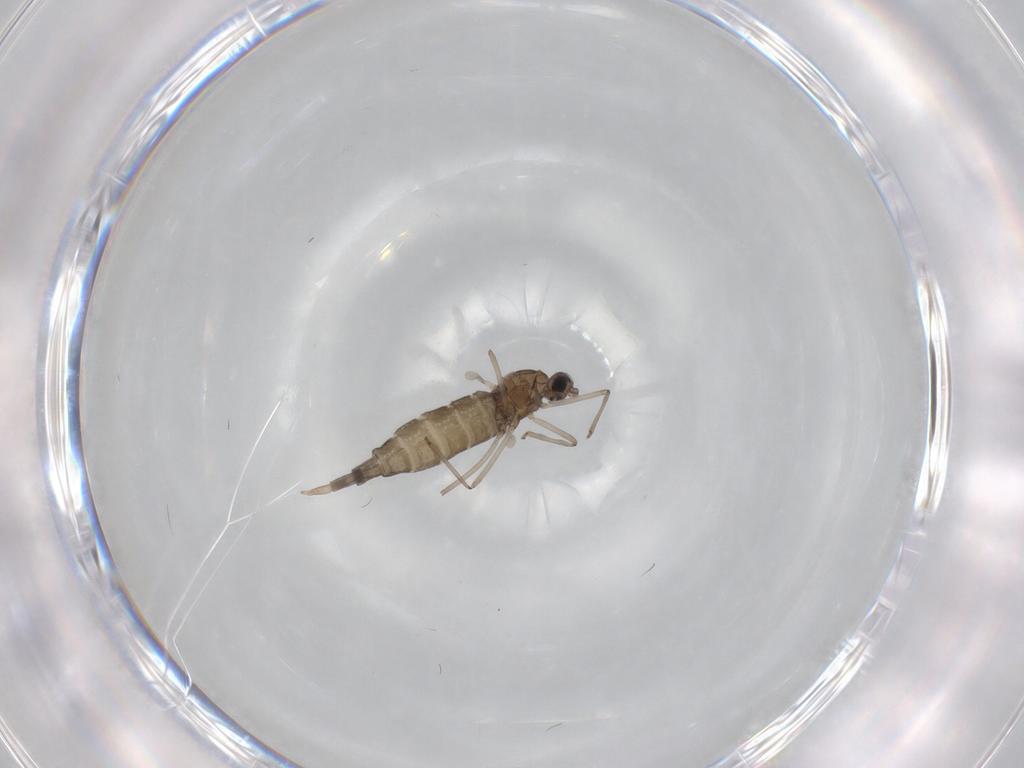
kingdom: Animalia
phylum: Arthropoda
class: Insecta
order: Diptera
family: Cecidomyiidae
